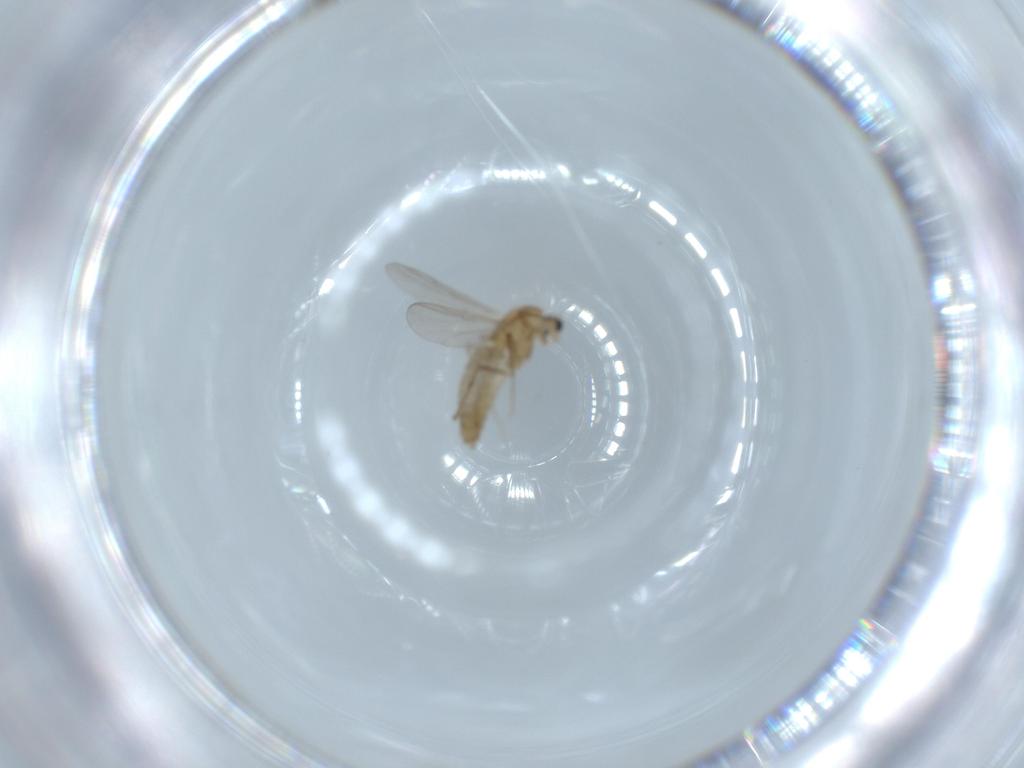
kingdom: Animalia
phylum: Arthropoda
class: Insecta
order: Diptera
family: Chironomidae
